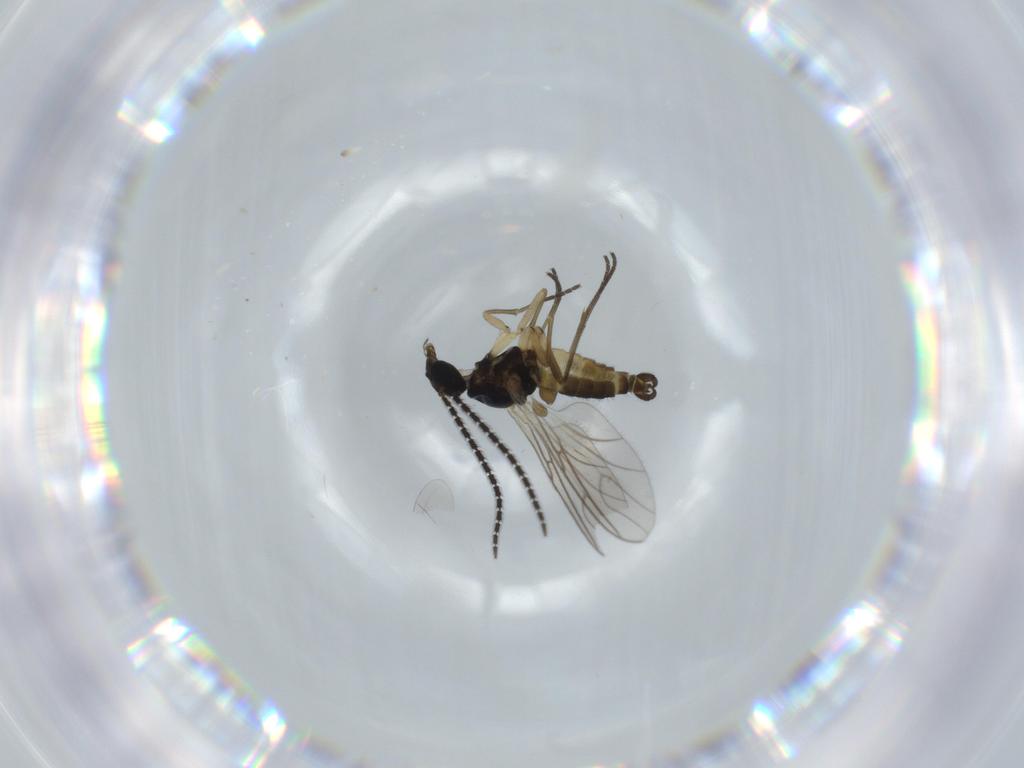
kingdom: Animalia
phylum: Arthropoda
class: Insecta
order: Diptera
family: Sciaridae
